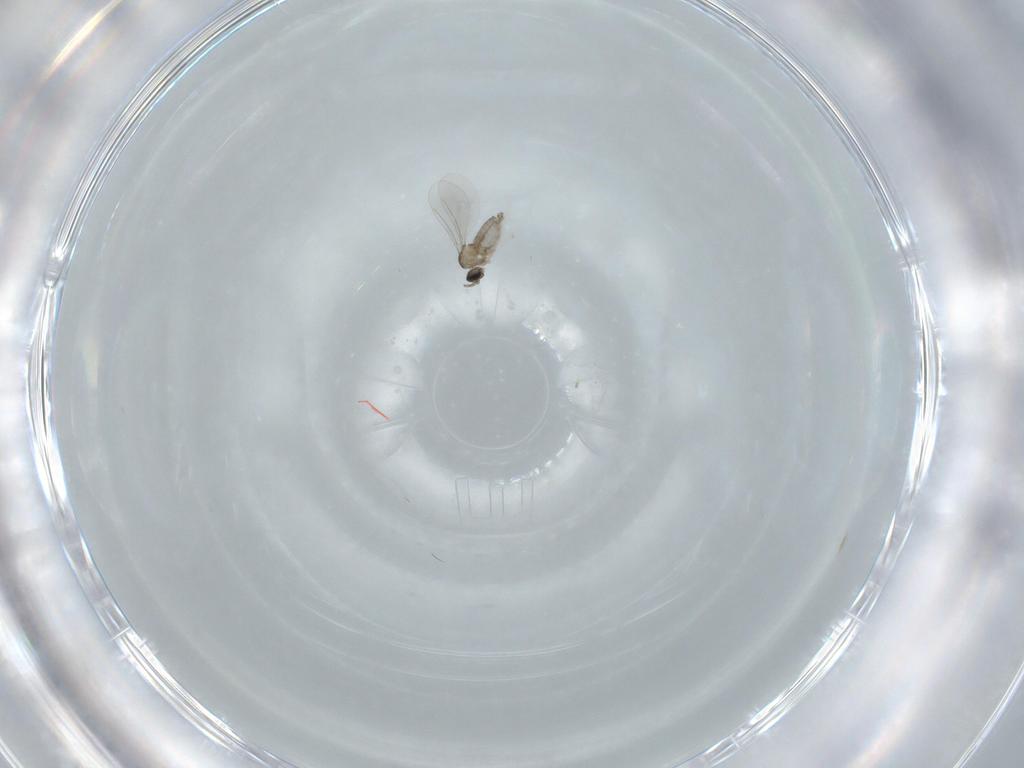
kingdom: Animalia
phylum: Arthropoda
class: Insecta
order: Diptera
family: Cecidomyiidae
